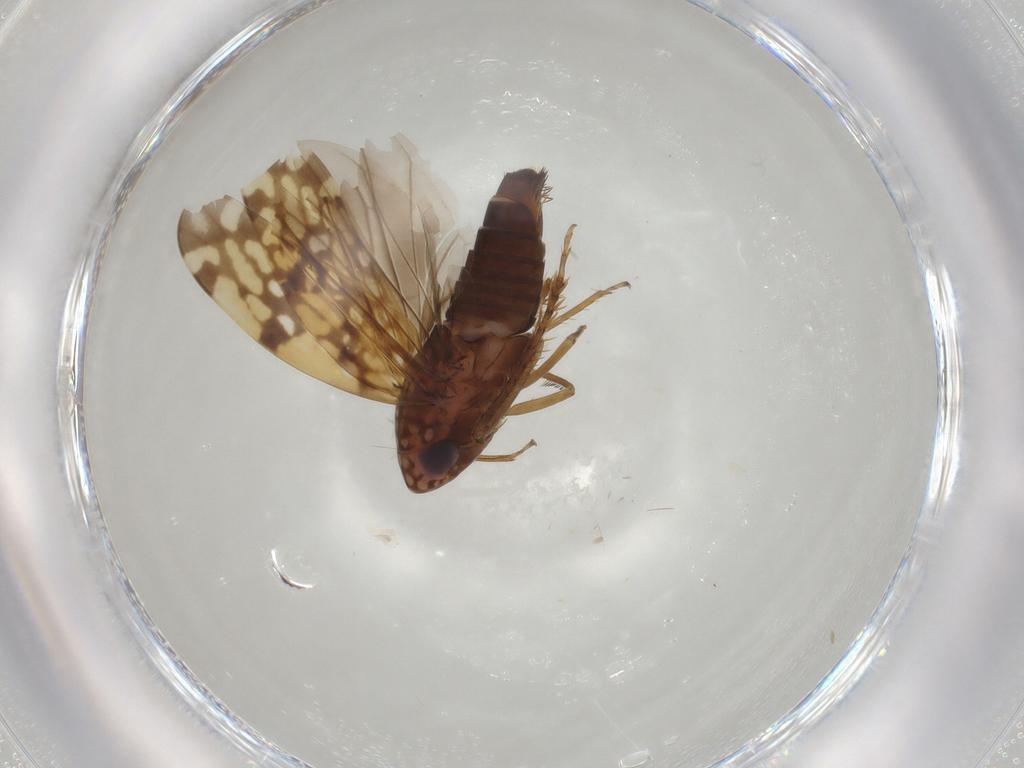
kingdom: Animalia
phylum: Arthropoda
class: Insecta
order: Hemiptera
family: Cicadellidae
